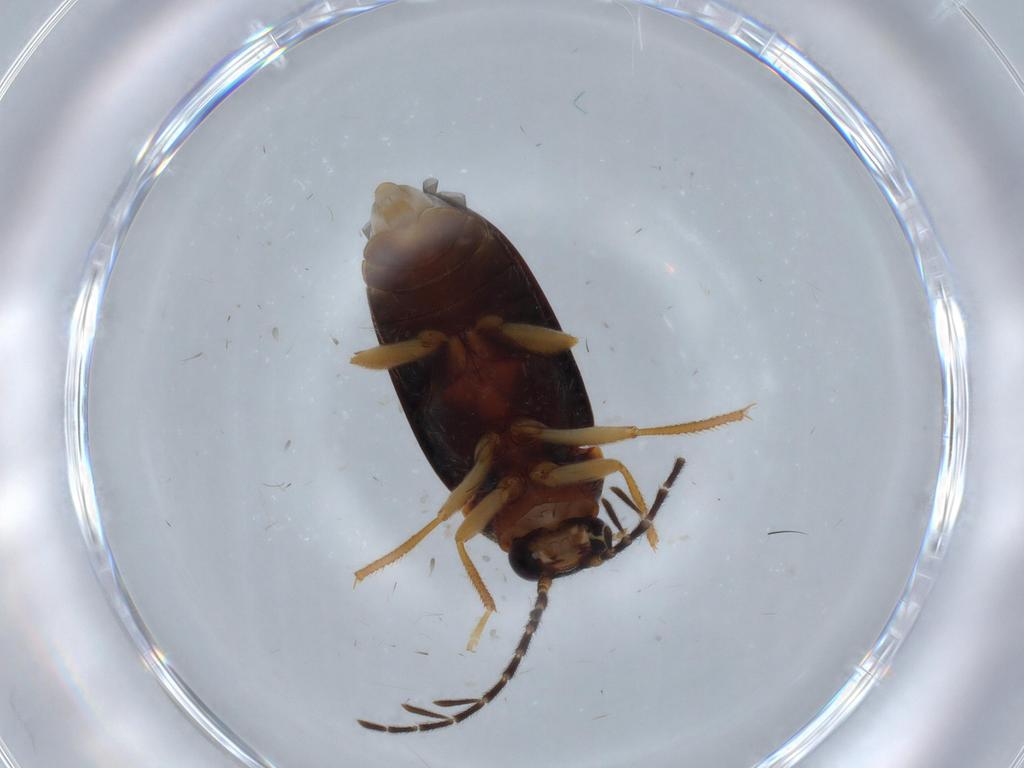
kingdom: Animalia
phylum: Arthropoda
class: Insecta
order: Coleoptera
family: Ptilodactylidae
